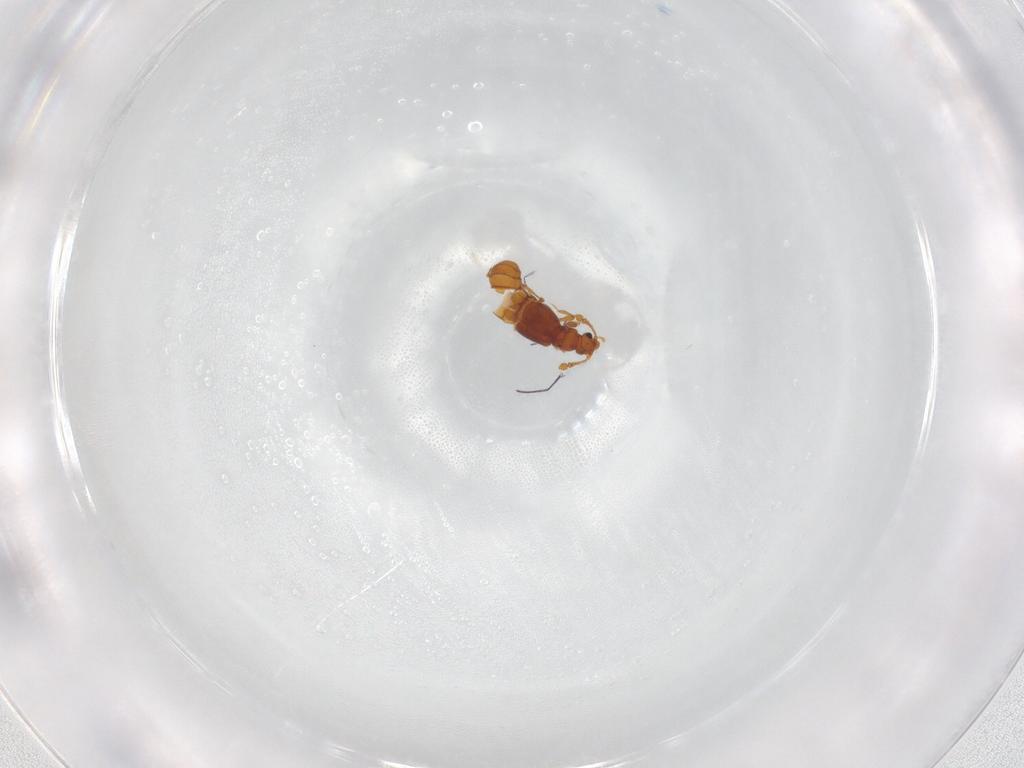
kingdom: Animalia
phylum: Arthropoda
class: Insecta
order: Coleoptera
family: Staphylinidae
